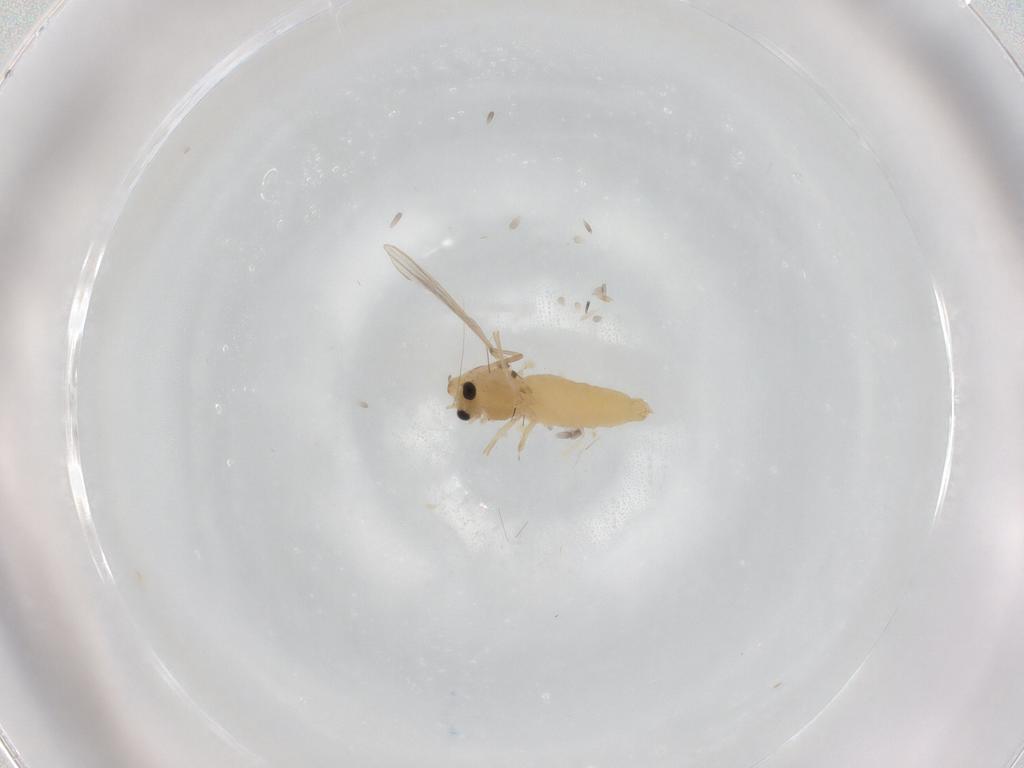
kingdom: Animalia
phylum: Arthropoda
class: Insecta
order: Diptera
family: Chironomidae
